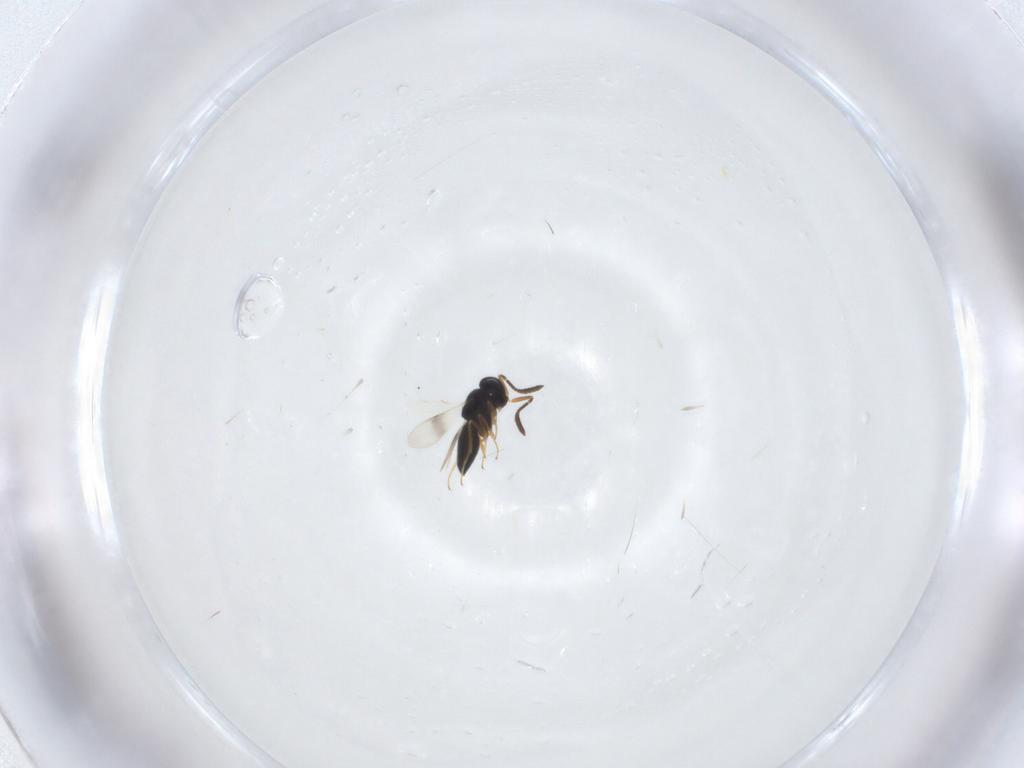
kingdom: Animalia
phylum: Arthropoda
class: Insecta
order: Hymenoptera
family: Scelionidae
